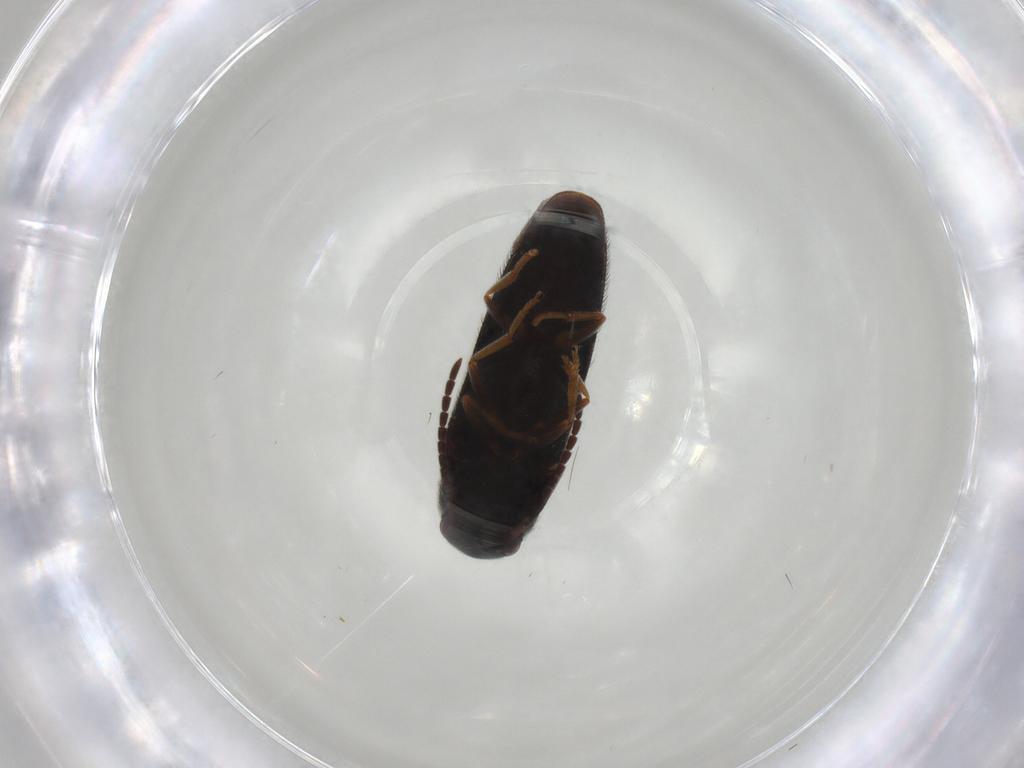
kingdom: Animalia
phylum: Arthropoda
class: Insecta
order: Coleoptera
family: Eucnemidae
